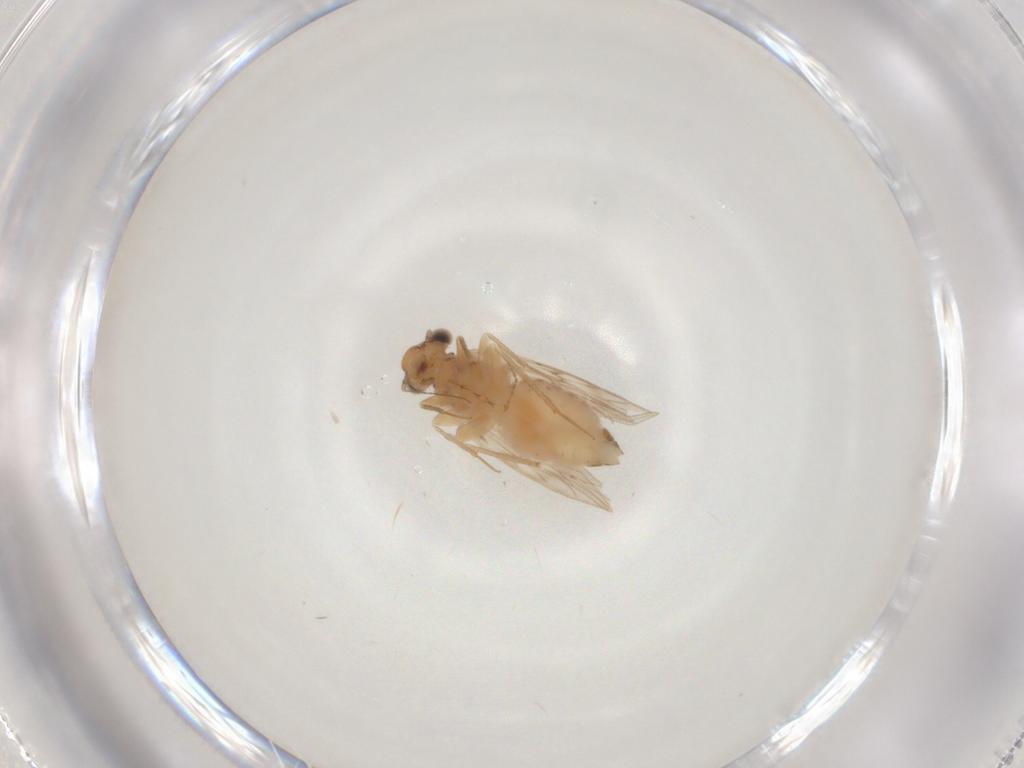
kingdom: Animalia
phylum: Arthropoda
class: Insecta
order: Psocodea
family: Lepidopsocidae
